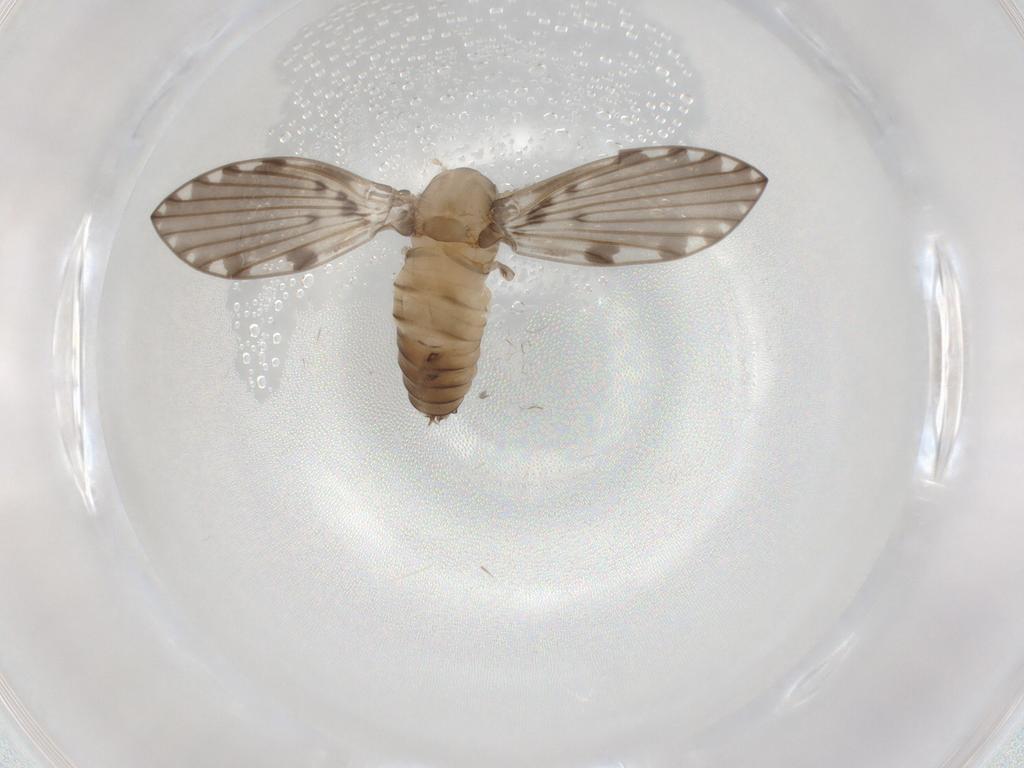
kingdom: Animalia
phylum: Arthropoda
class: Insecta
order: Diptera
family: Psychodidae
